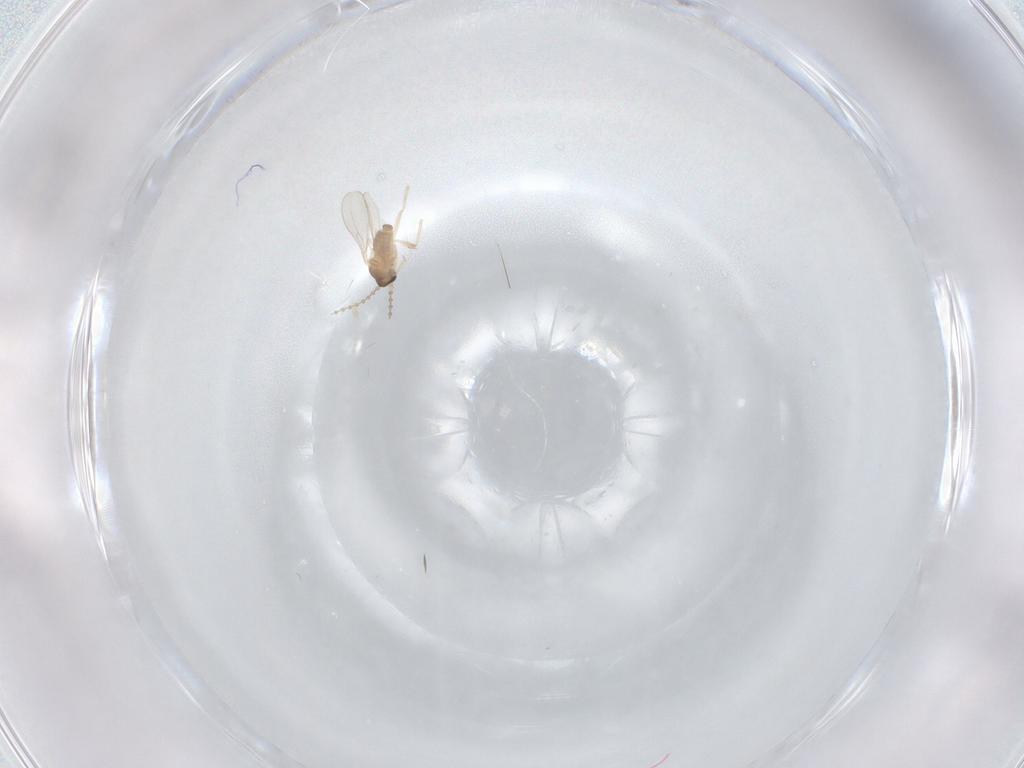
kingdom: Animalia
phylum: Arthropoda
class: Insecta
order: Diptera
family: Cecidomyiidae
